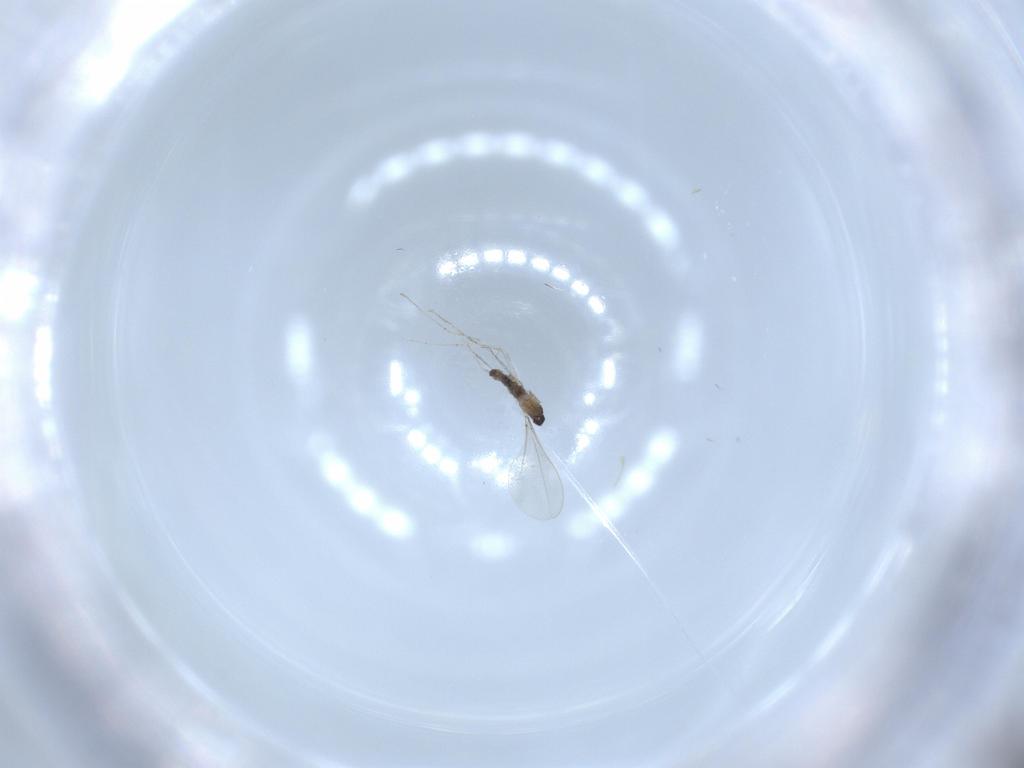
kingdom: Animalia
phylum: Arthropoda
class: Insecta
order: Diptera
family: Cecidomyiidae
